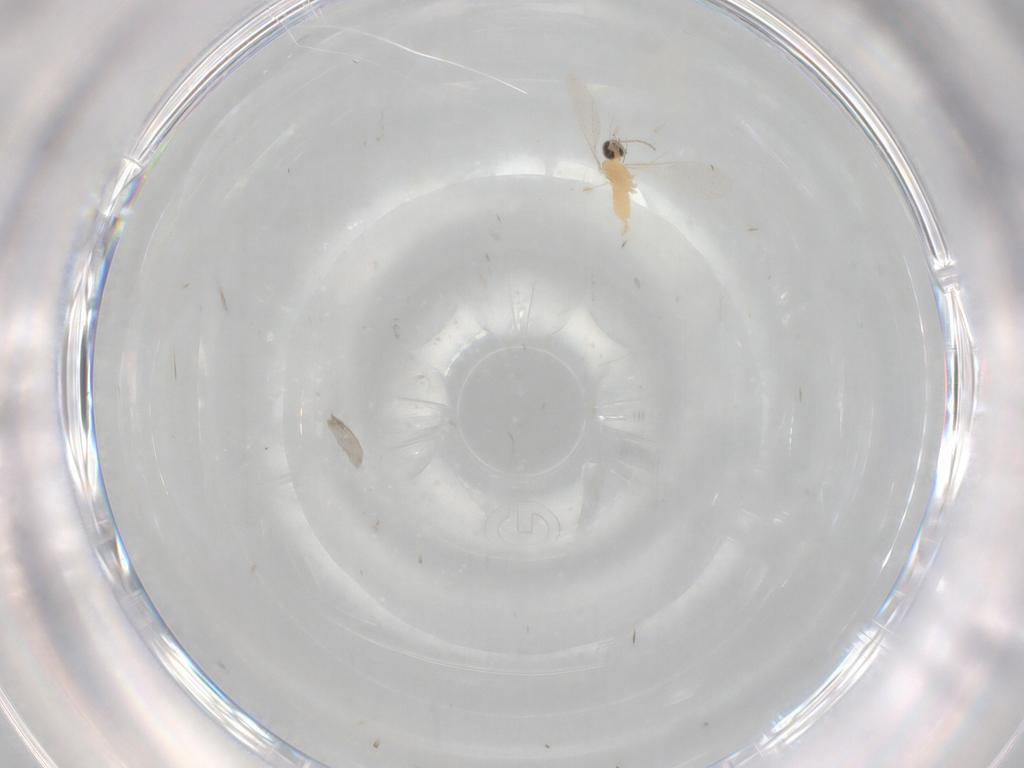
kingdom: Animalia
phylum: Arthropoda
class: Insecta
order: Diptera
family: Cecidomyiidae
